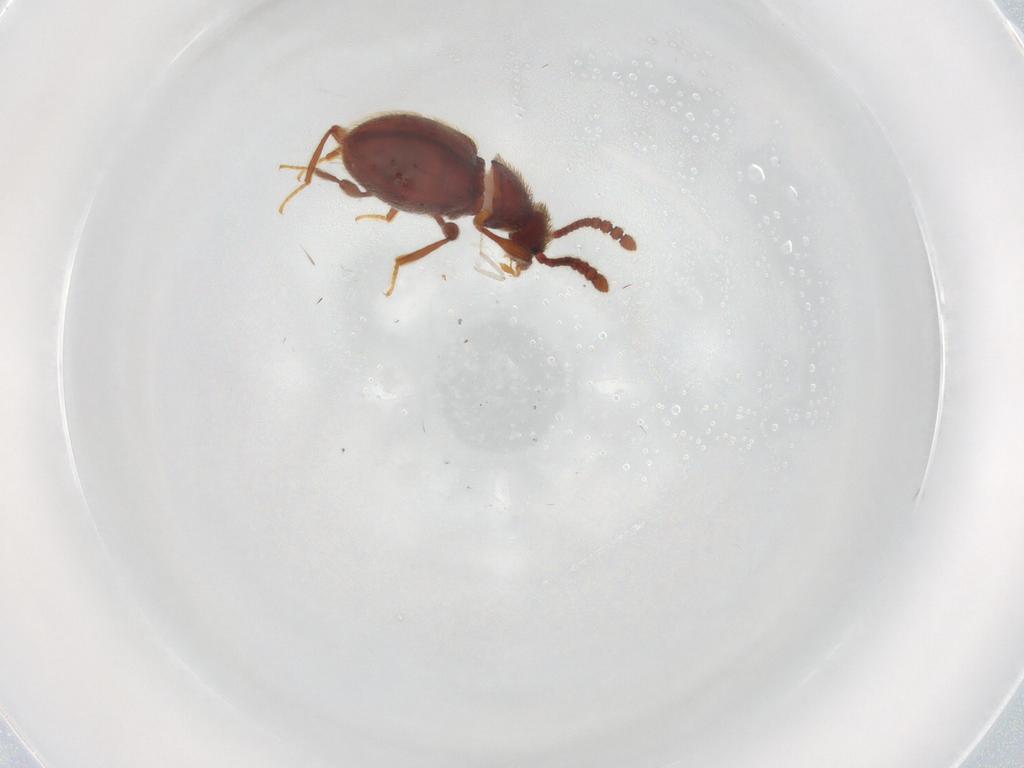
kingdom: Animalia
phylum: Arthropoda
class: Insecta
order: Coleoptera
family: Staphylinidae
